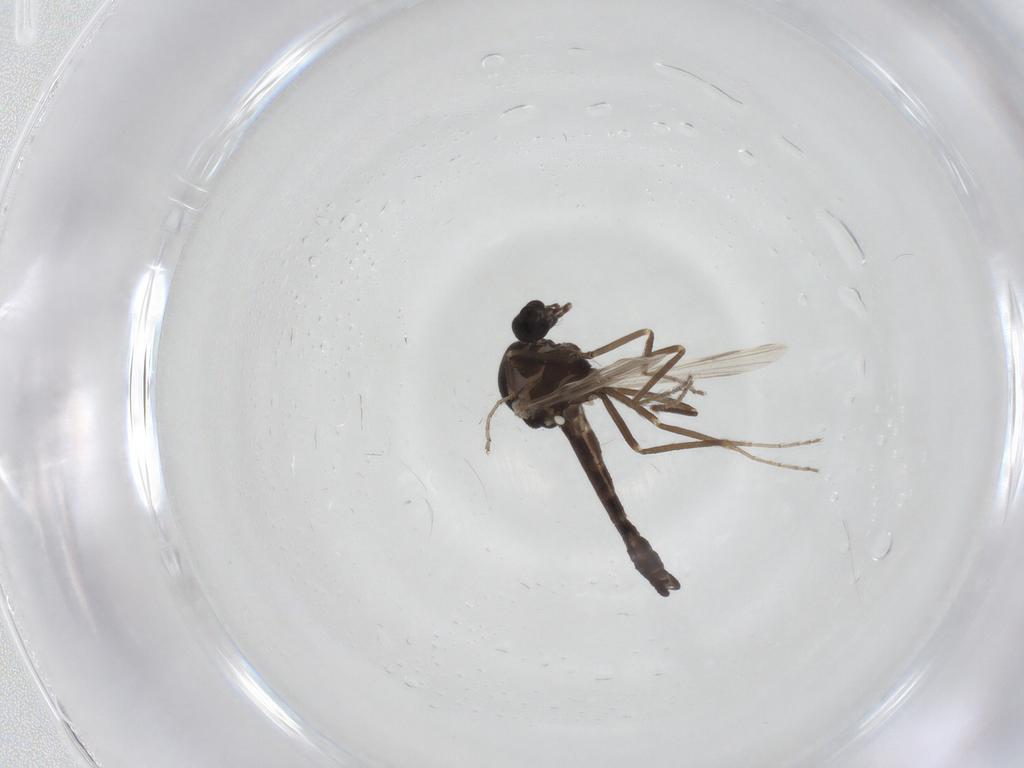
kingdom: Animalia
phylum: Arthropoda
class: Insecta
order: Diptera
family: Ceratopogonidae
